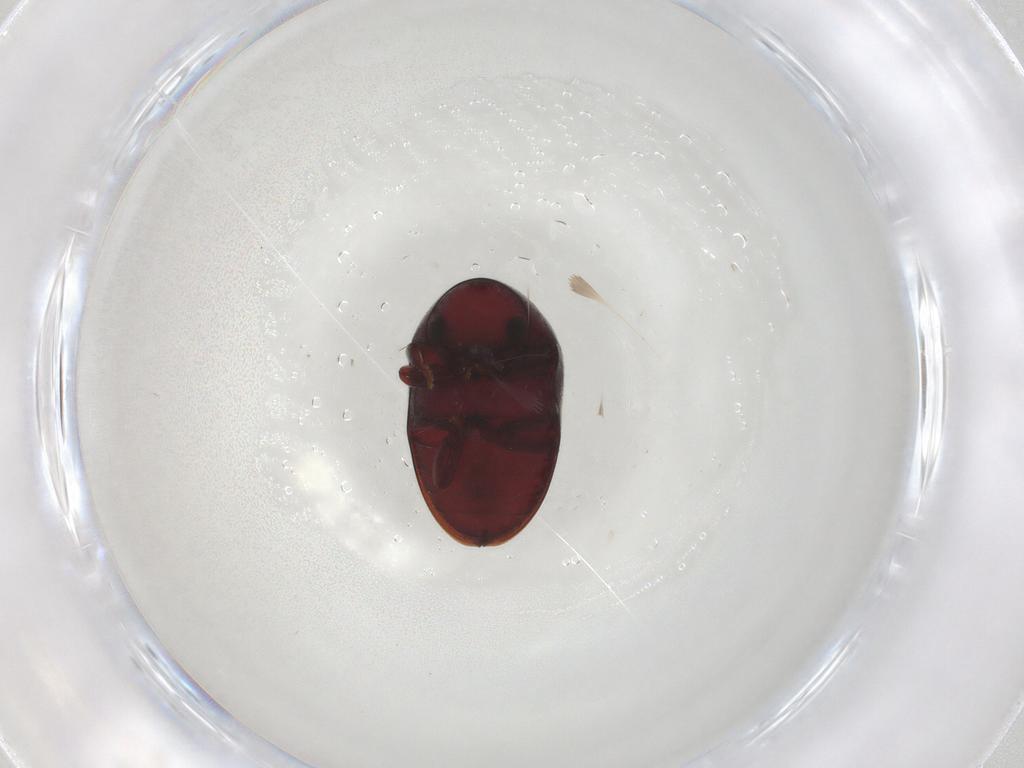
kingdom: Animalia
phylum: Arthropoda
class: Insecta
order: Coleoptera
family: Ptinidae
